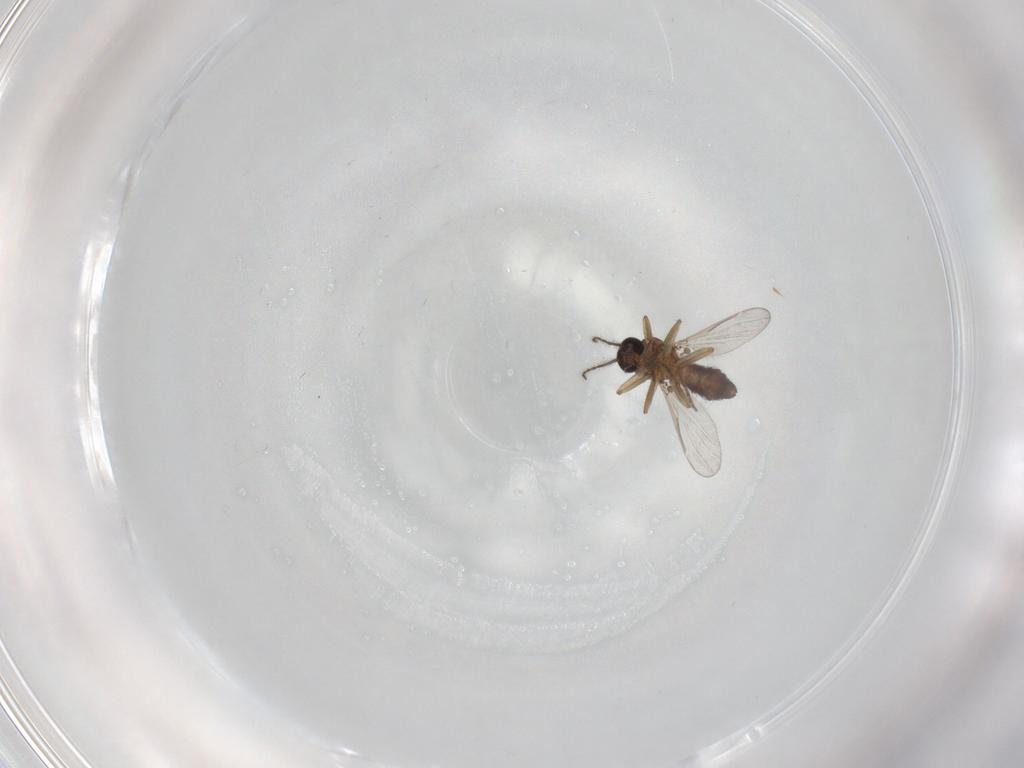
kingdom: Animalia
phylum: Arthropoda
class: Insecta
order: Diptera
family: Ceratopogonidae
